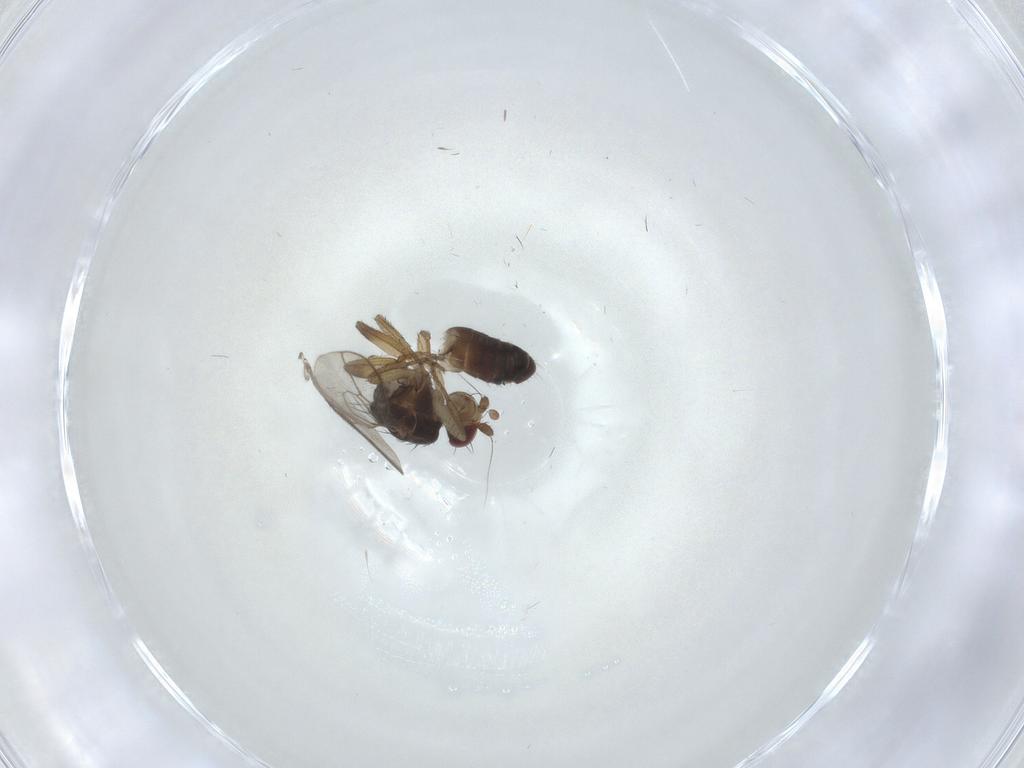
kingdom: Animalia
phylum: Arthropoda
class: Insecta
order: Diptera
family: Sphaeroceridae
